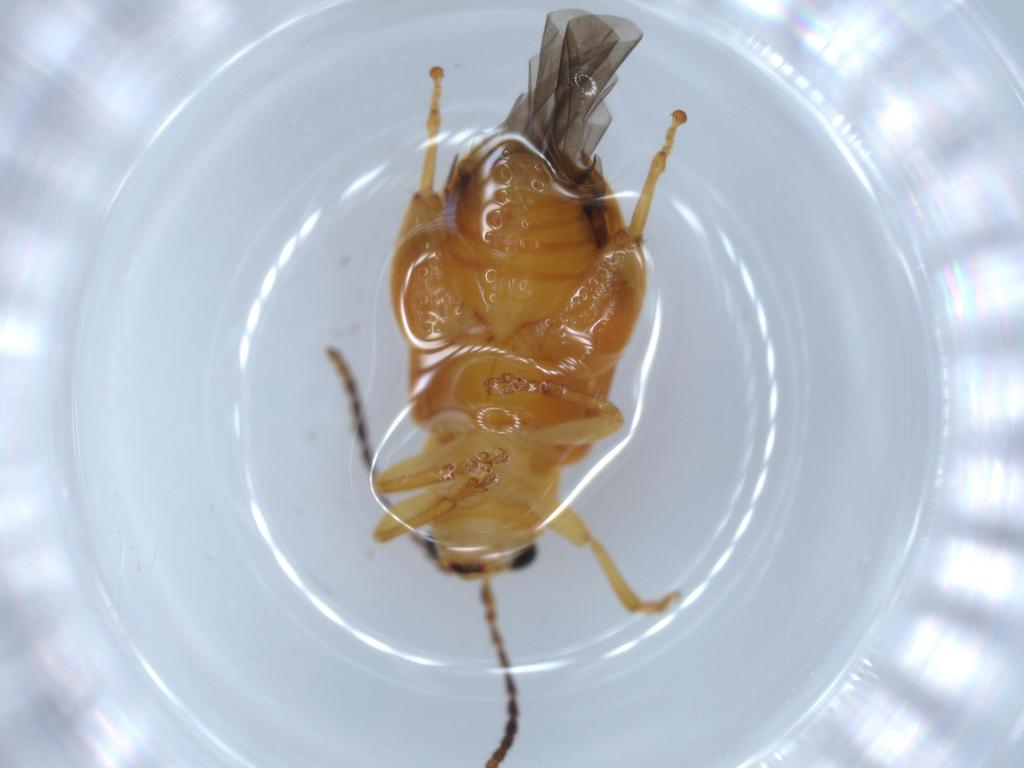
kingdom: Animalia
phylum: Arthropoda
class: Insecta
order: Coleoptera
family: Chrysomelidae
